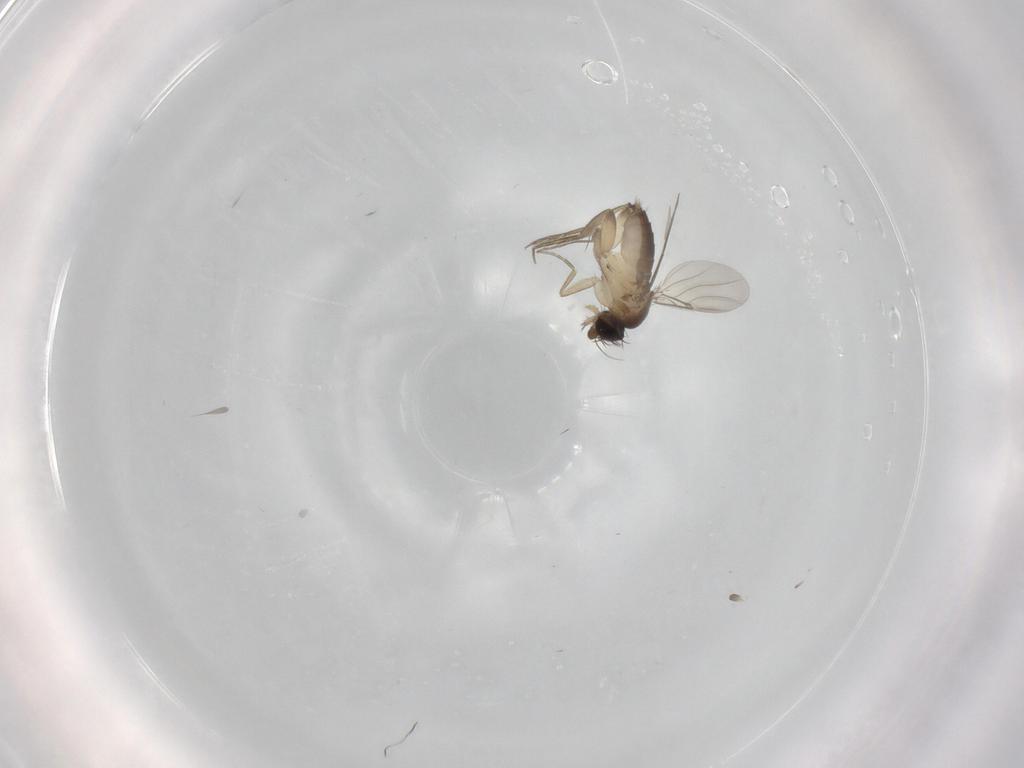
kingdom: Animalia
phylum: Arthropoda
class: Insecta
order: Diptera
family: Phoridae
